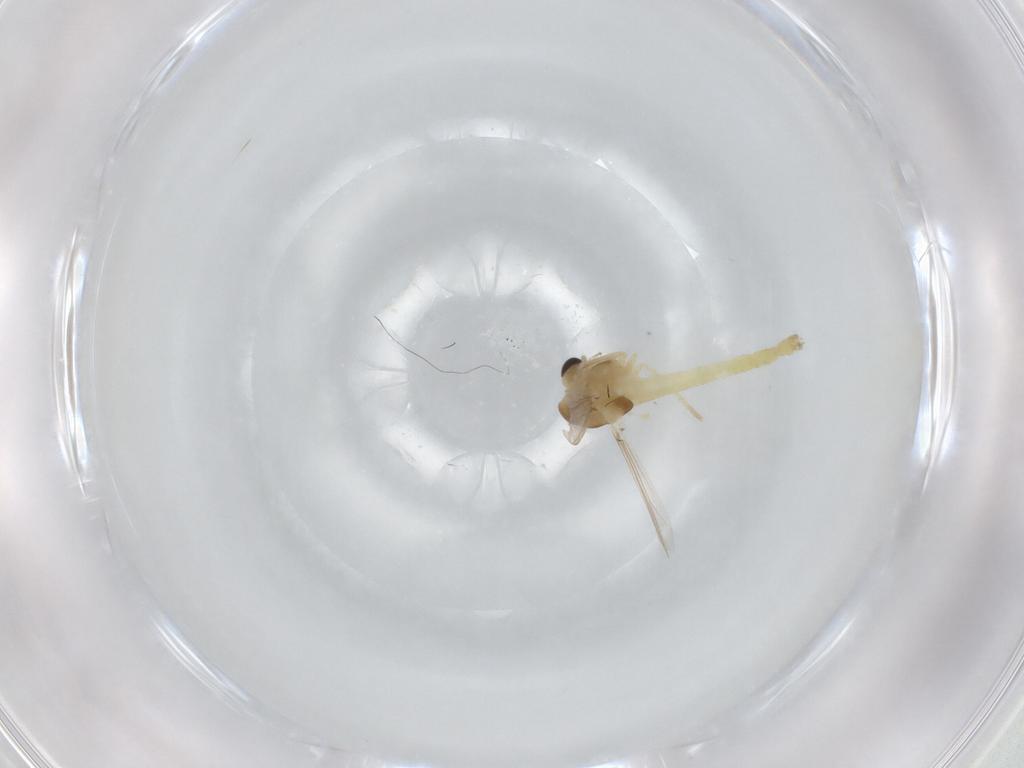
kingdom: Animalia
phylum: Arthropoda
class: Insecta
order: Diptera
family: Chironomidae
